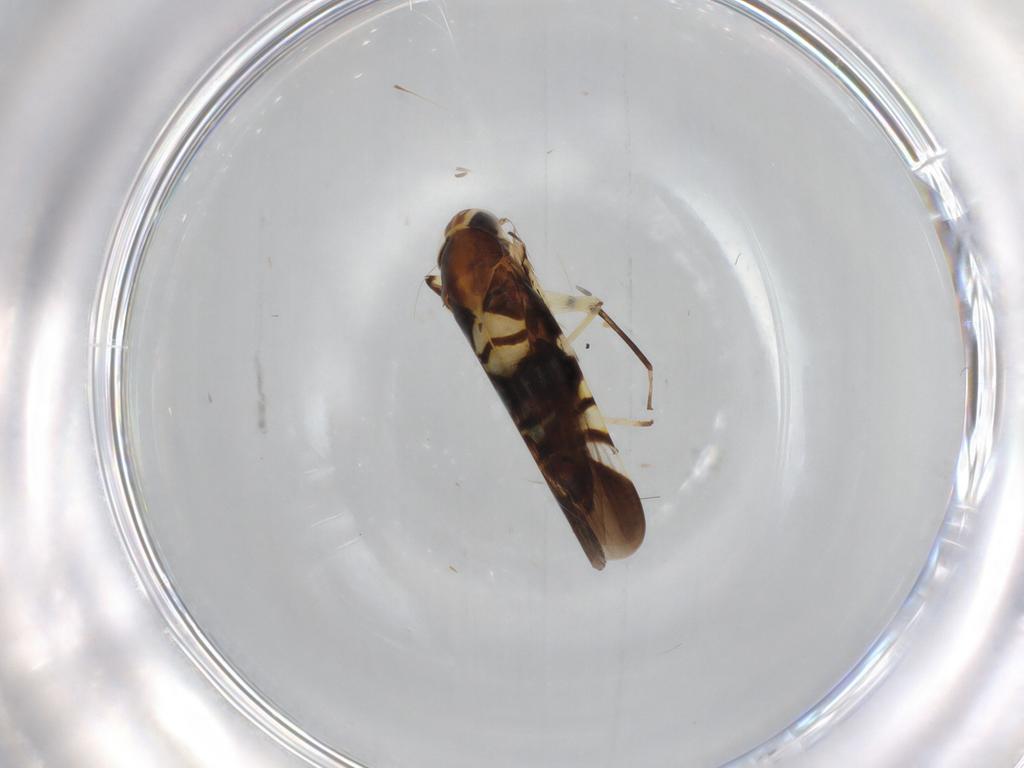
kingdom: Animalia
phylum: Arthropoda
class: Insecta
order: Hemiptera
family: Cicadellidae
